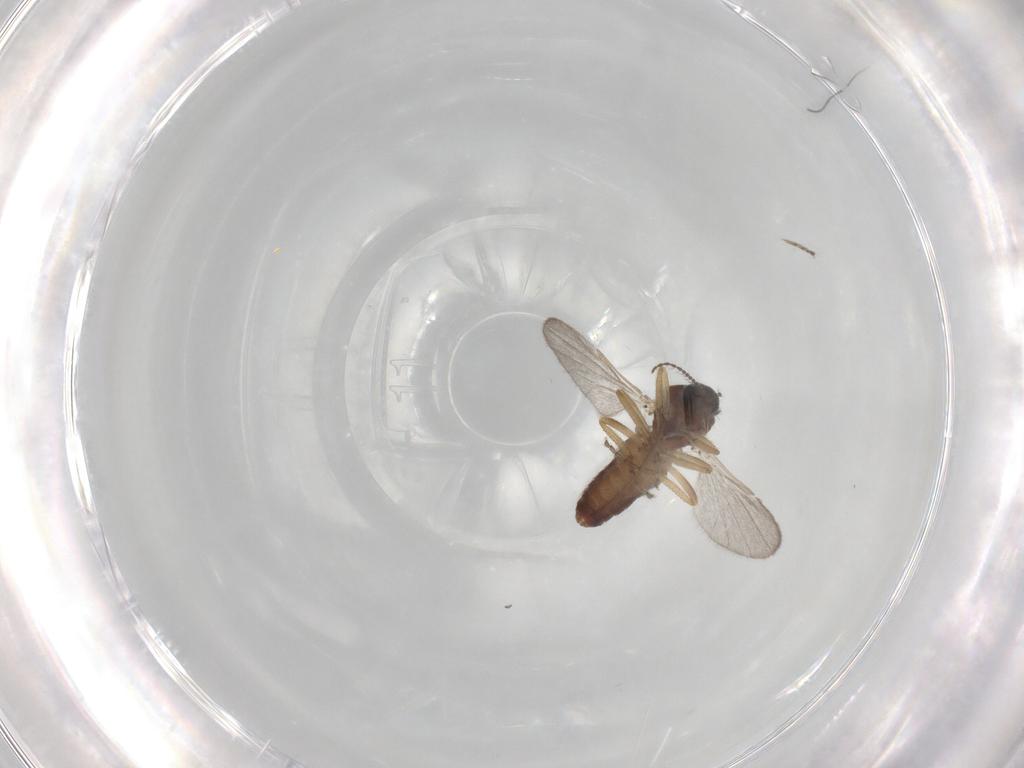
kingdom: Animalia
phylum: Arthropoda
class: Insecta
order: Diptera
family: Ceratopogonidae
